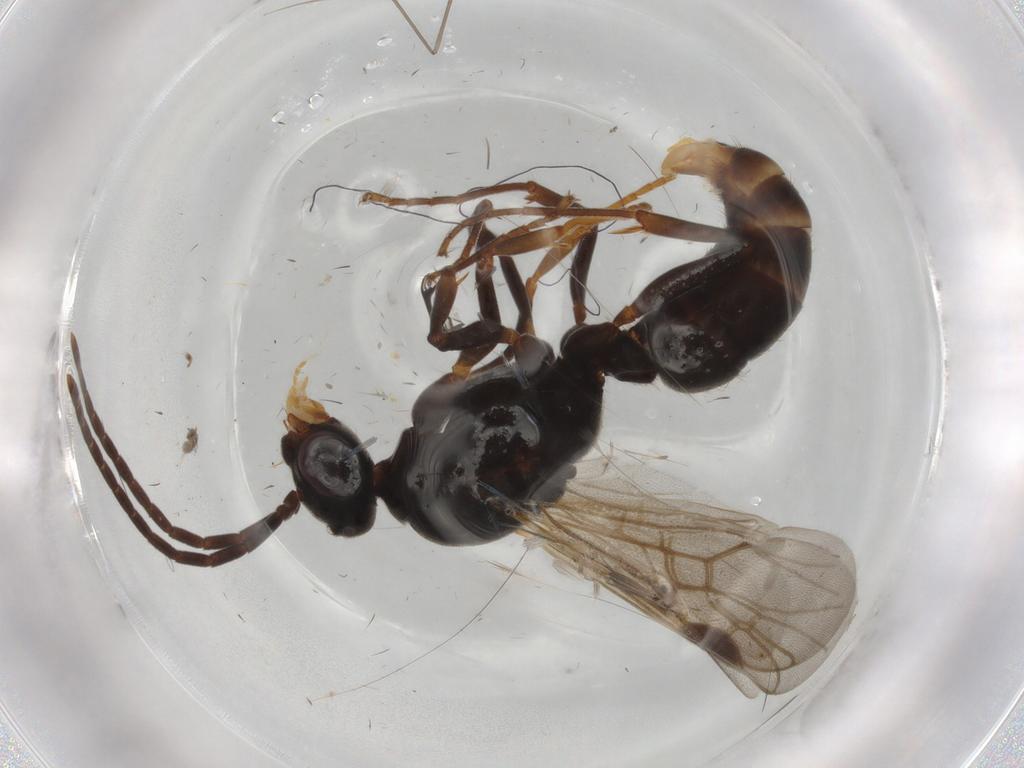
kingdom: Animalia
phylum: Arthropoda
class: Insecta
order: Hymenoptera
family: Formicidae
